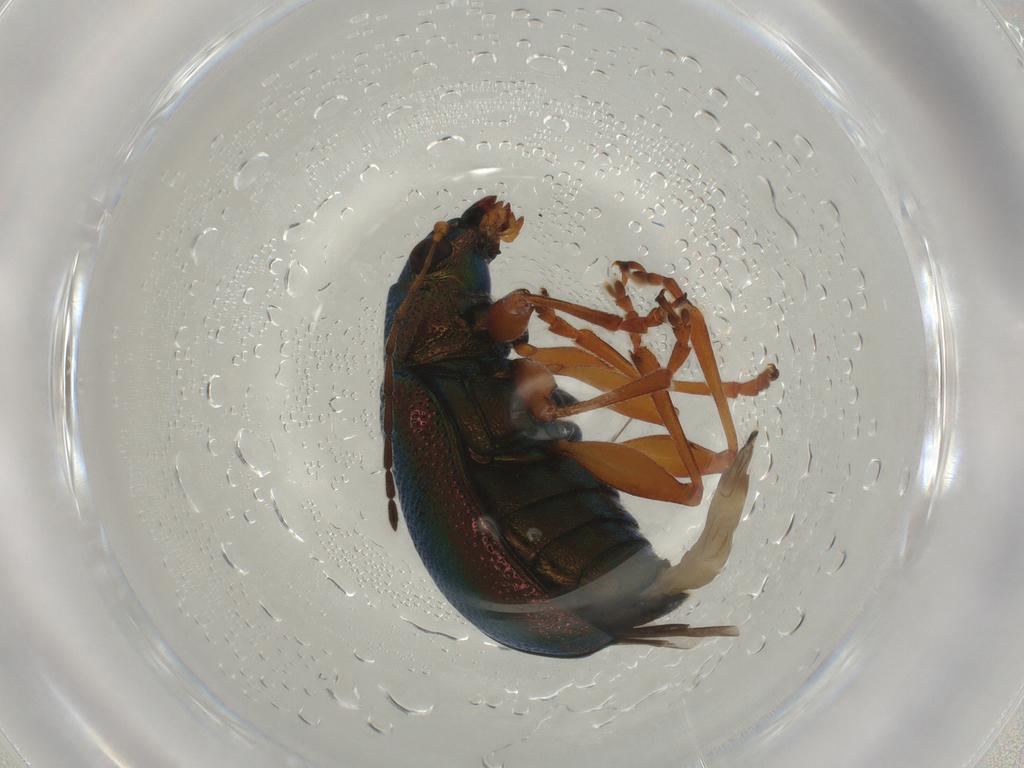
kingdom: Animalia
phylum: Arthropoda
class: Insecta
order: Coleoptera
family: Chrysomelidae
